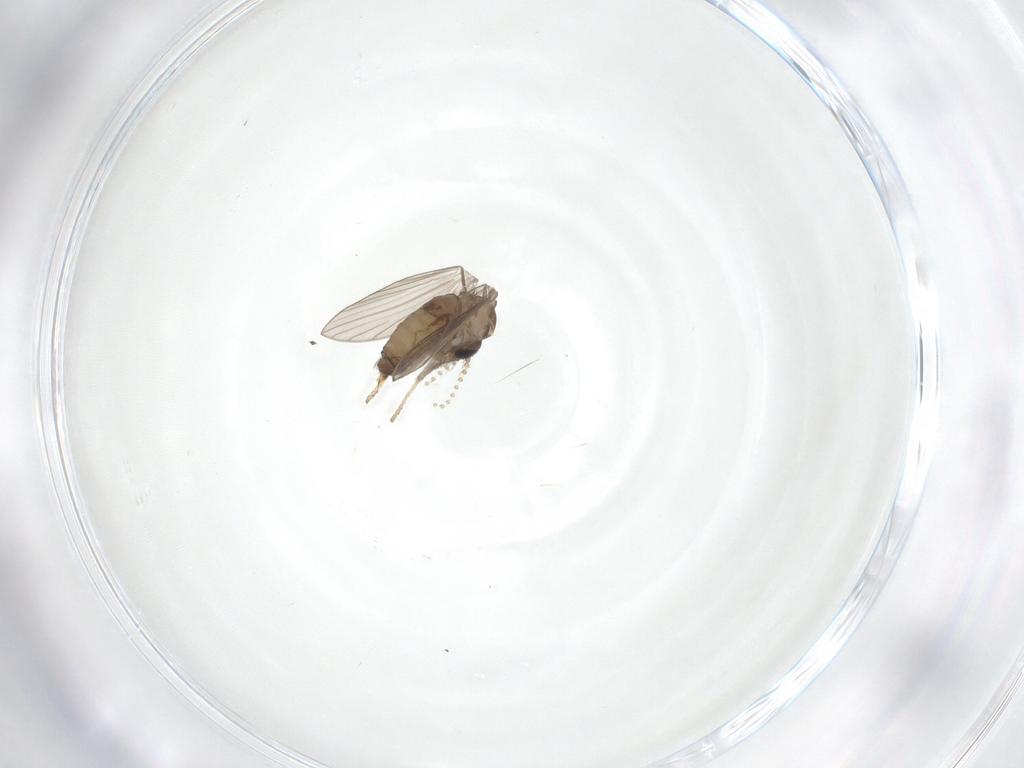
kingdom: Animalia
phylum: Arthropoda
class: Insecta
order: Diptera
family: Psychodidae
